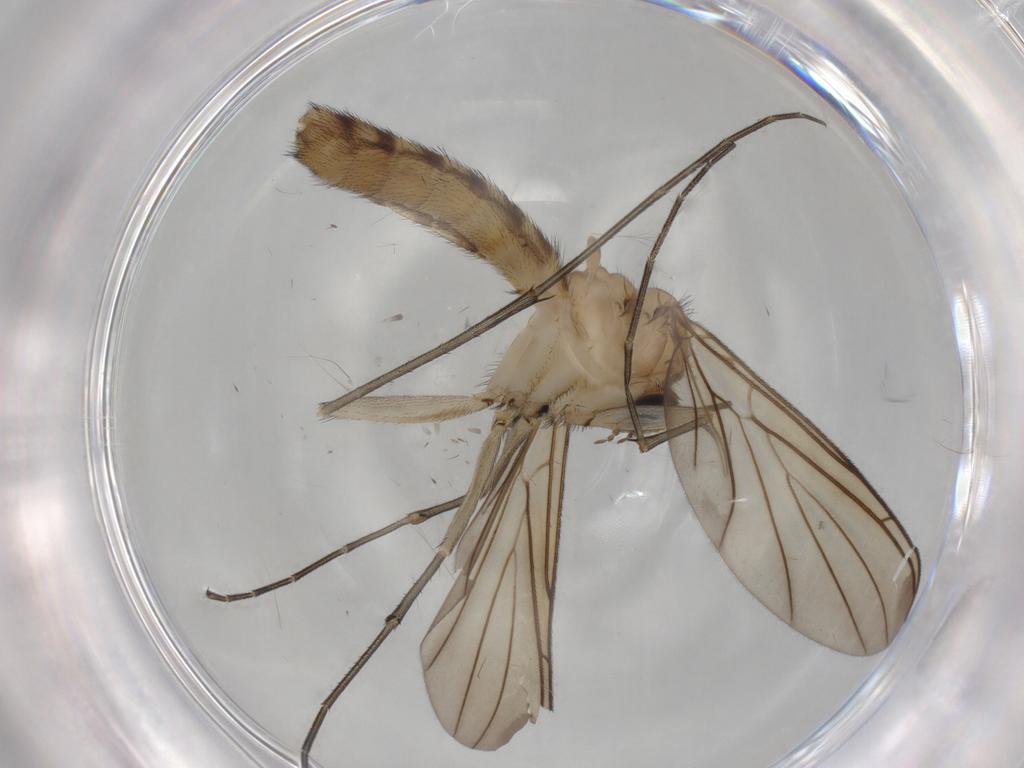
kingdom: Animalia
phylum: Arthropoda
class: Insecta
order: Diptera
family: Keroplatidae
